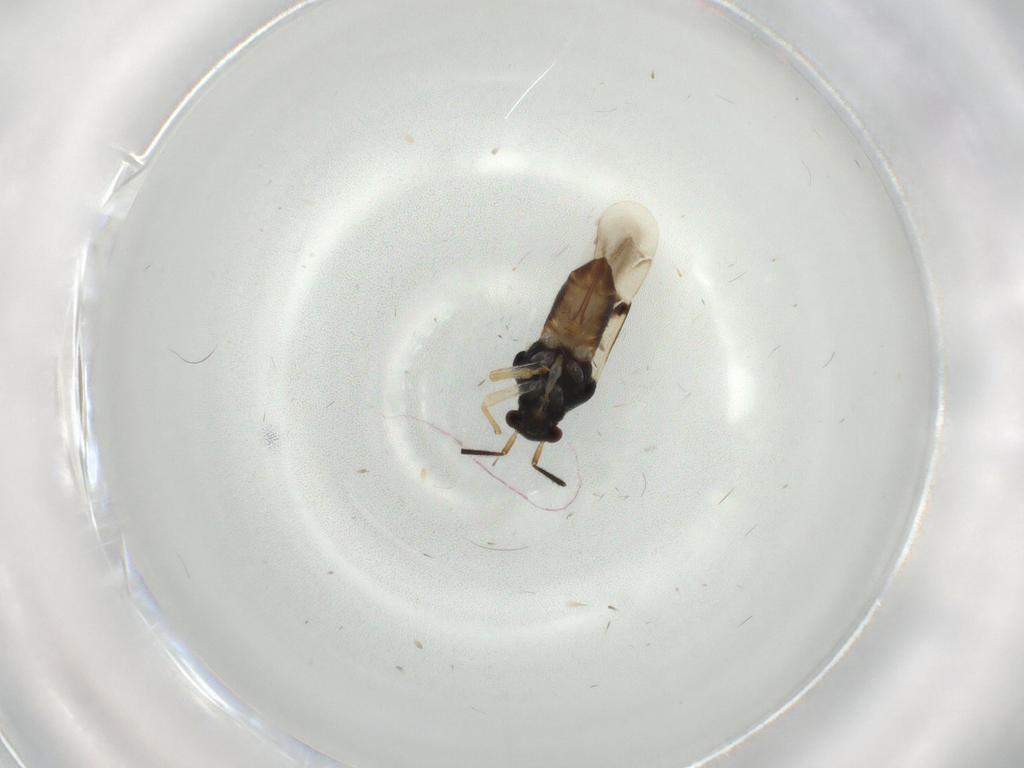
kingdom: Animalia
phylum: Arthropoda
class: Insecta
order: Hemiptera
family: Miridae
